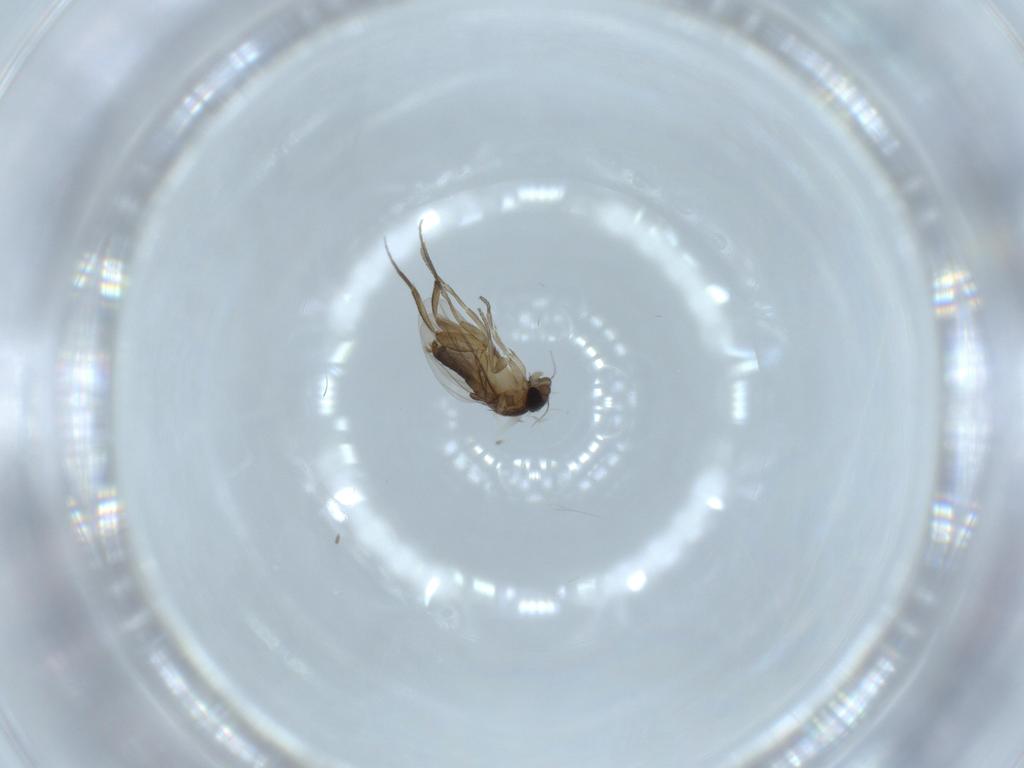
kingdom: Animalia
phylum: Arthropoda
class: Insecta
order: Diptera
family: Phoridae
